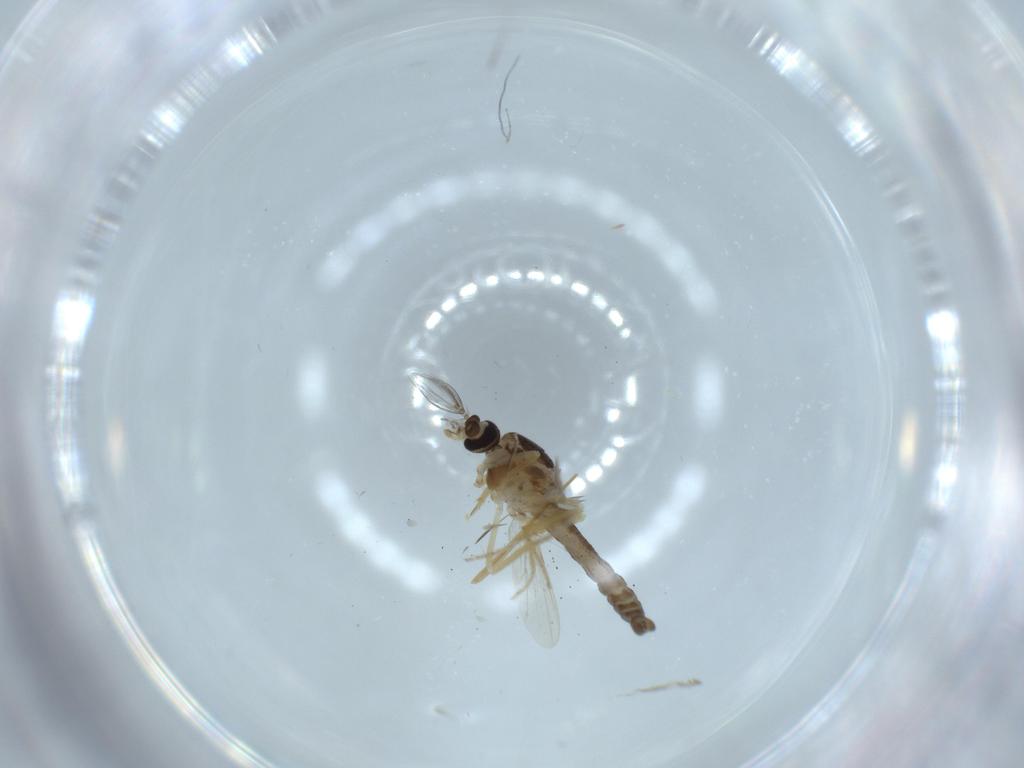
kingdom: Animalia
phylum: Arthropoda
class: Insecta
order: Diptera
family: Ceratopogonidae
